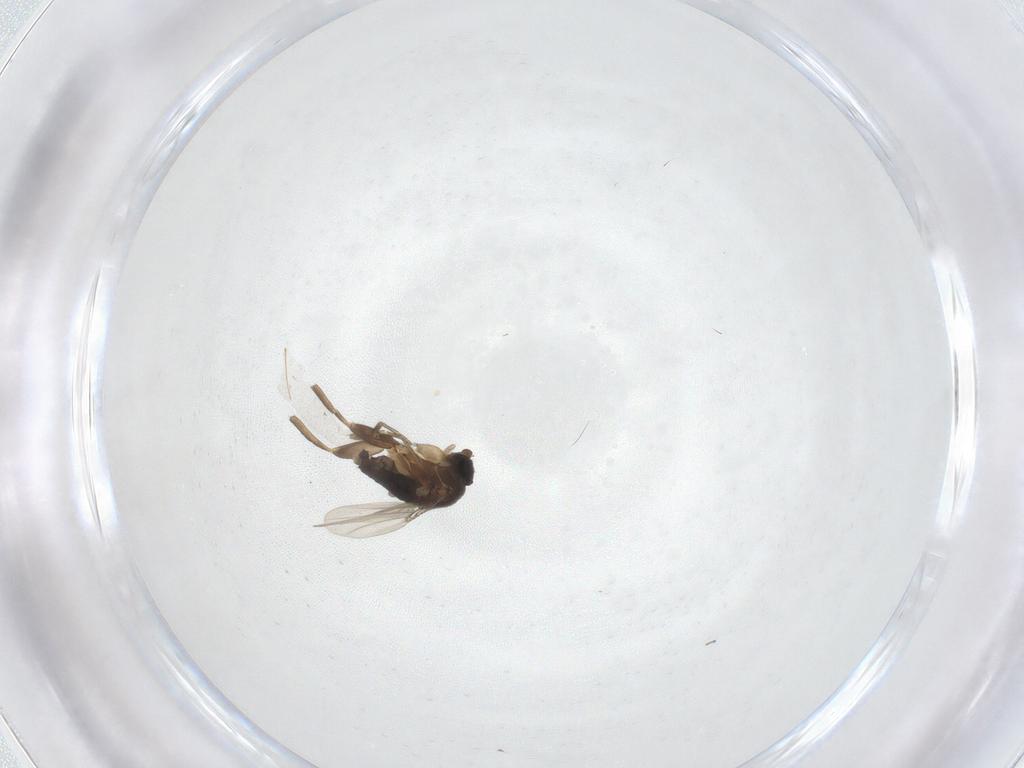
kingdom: Animalia
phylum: Arthropoda
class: Insecta
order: Diptera
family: Phoridae
